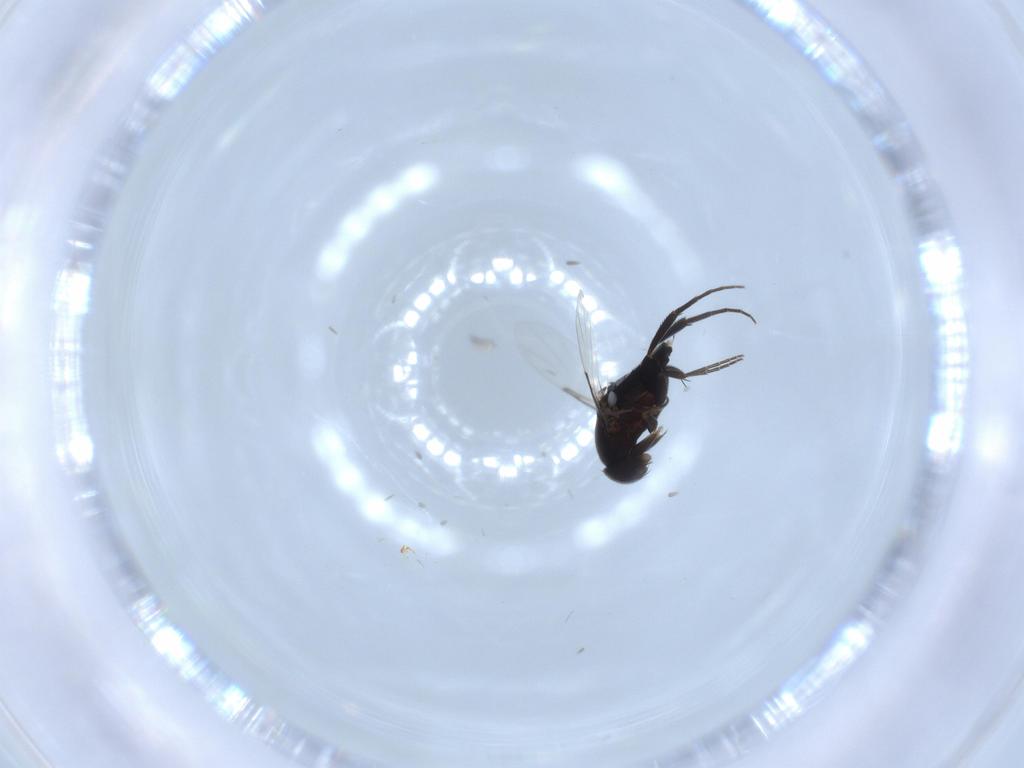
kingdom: Animalia
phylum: Arthropoda
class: Insecta
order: Diptera
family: Phoridae
